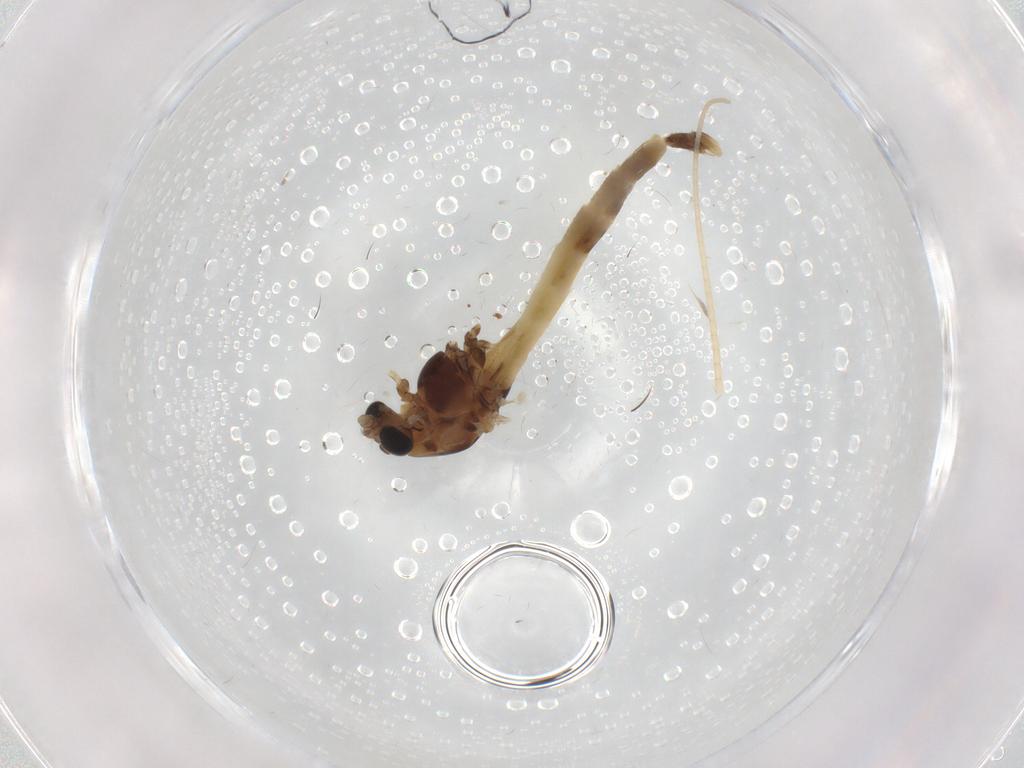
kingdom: Animalia
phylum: Arthropoda
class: Insecta
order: Diptera
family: Chironomidae
